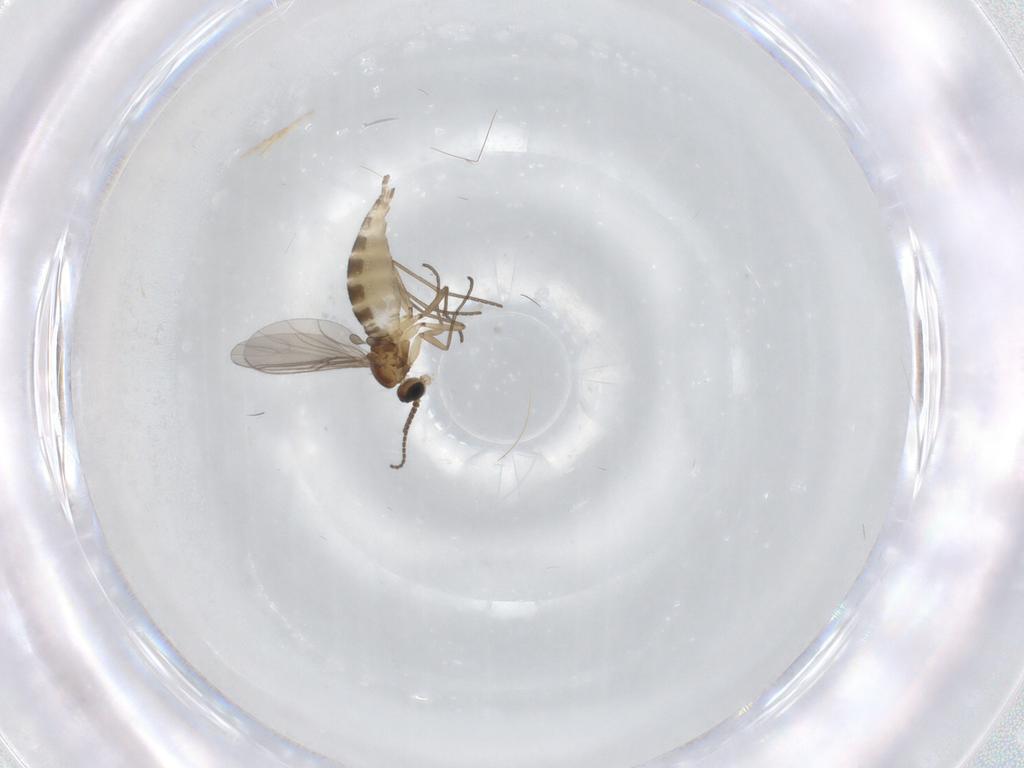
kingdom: Animalia
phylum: Arthropoda
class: Insecta
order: Diptera
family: Sciaridae
